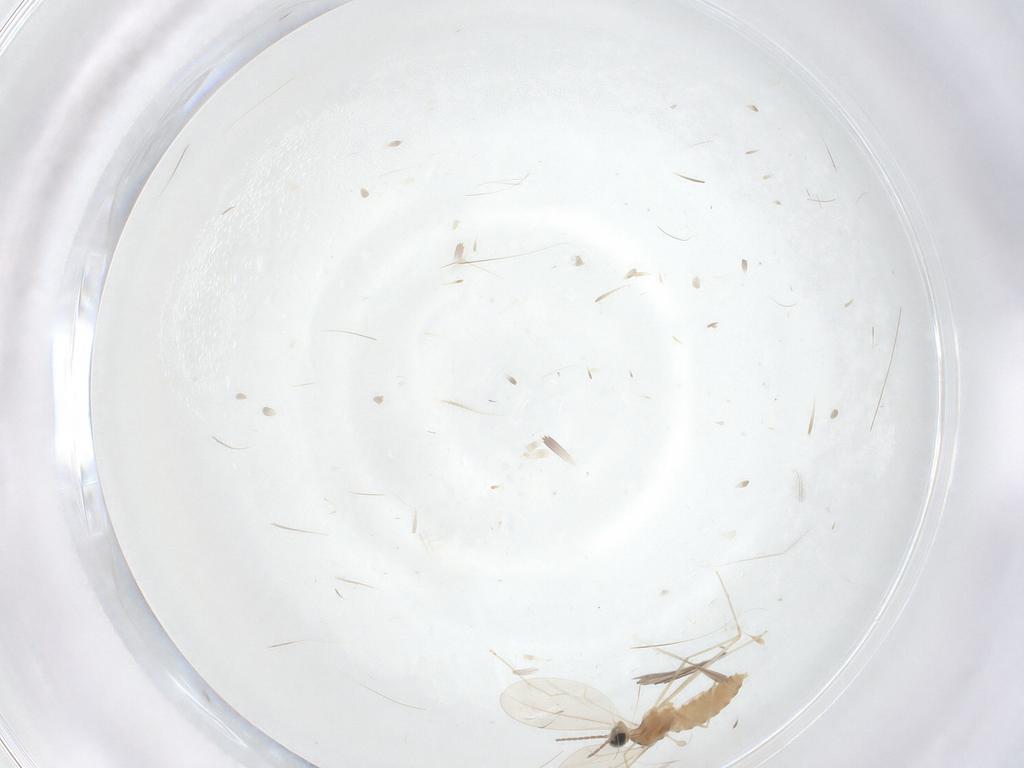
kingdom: Animalia
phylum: Arthropoda
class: Insecta
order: Diptera
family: Cecidomyiidae
